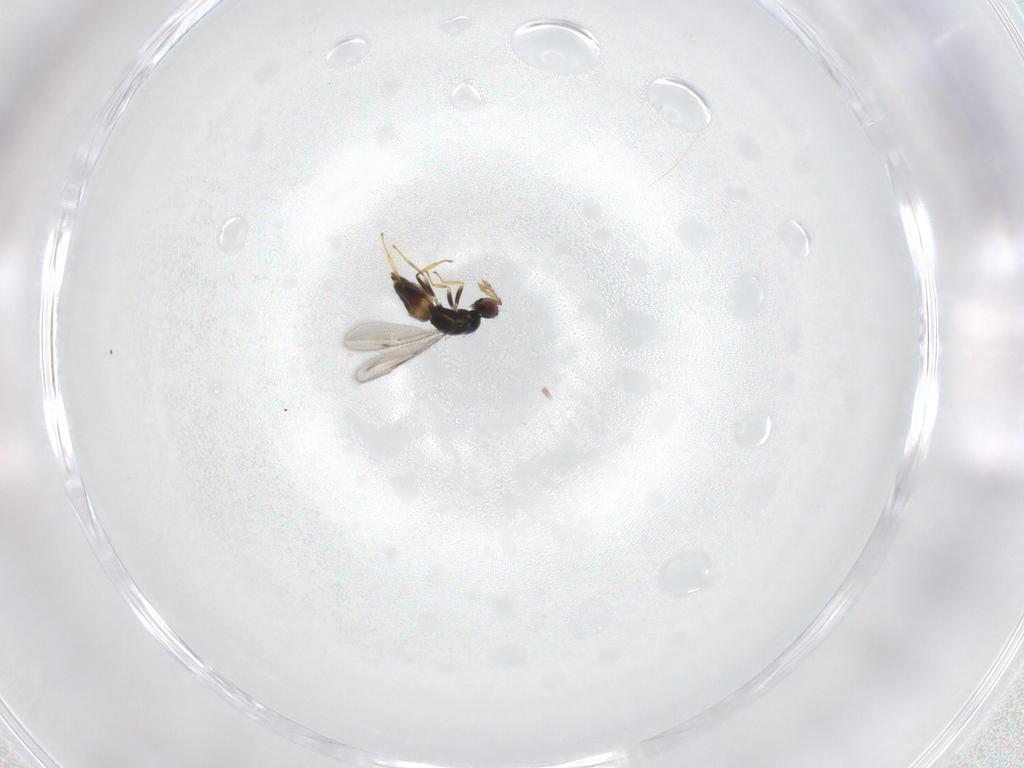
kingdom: Animalia
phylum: Arthropoda
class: Insecta
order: Hymenoptera
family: Eulophidae
